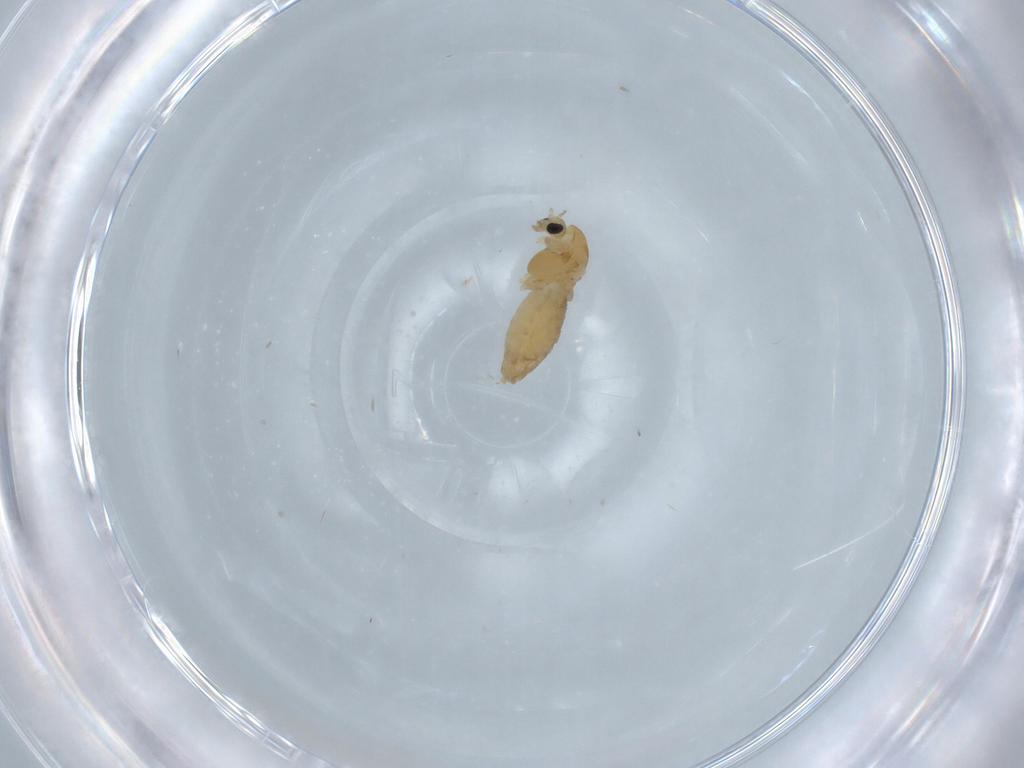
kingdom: Animalia
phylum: Arthropoda
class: Insecta
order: Diptera
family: Chironomidae
